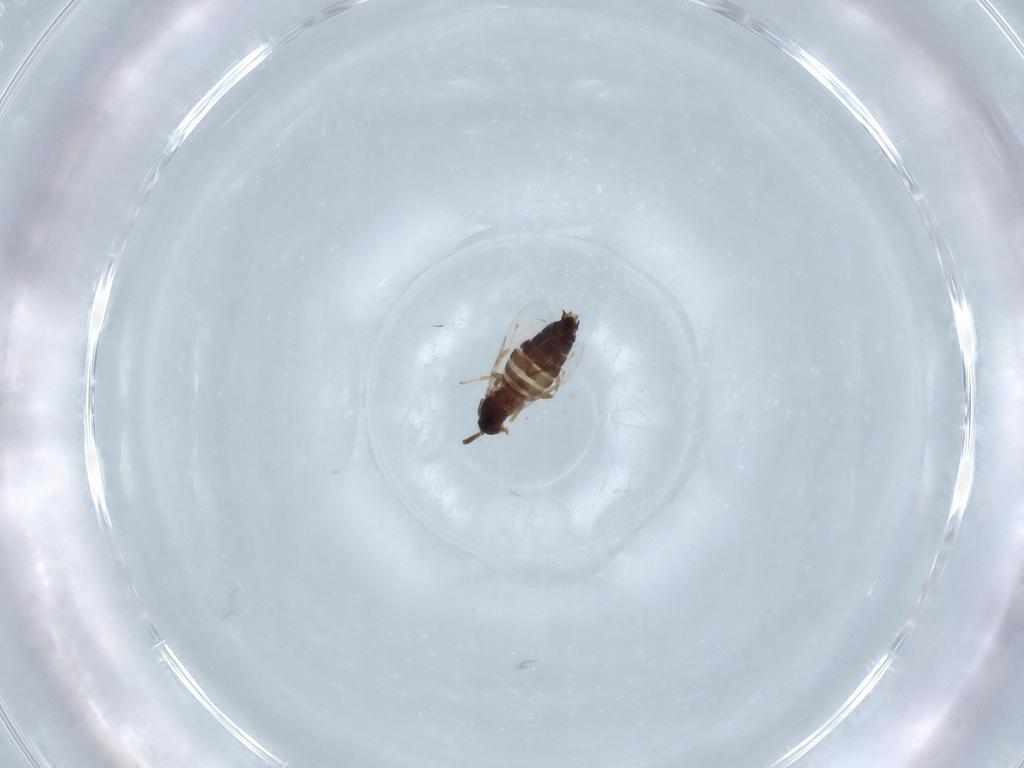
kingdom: Animalia
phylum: Arthropoda
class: Insecta
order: Diptera
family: Scatopsidae
